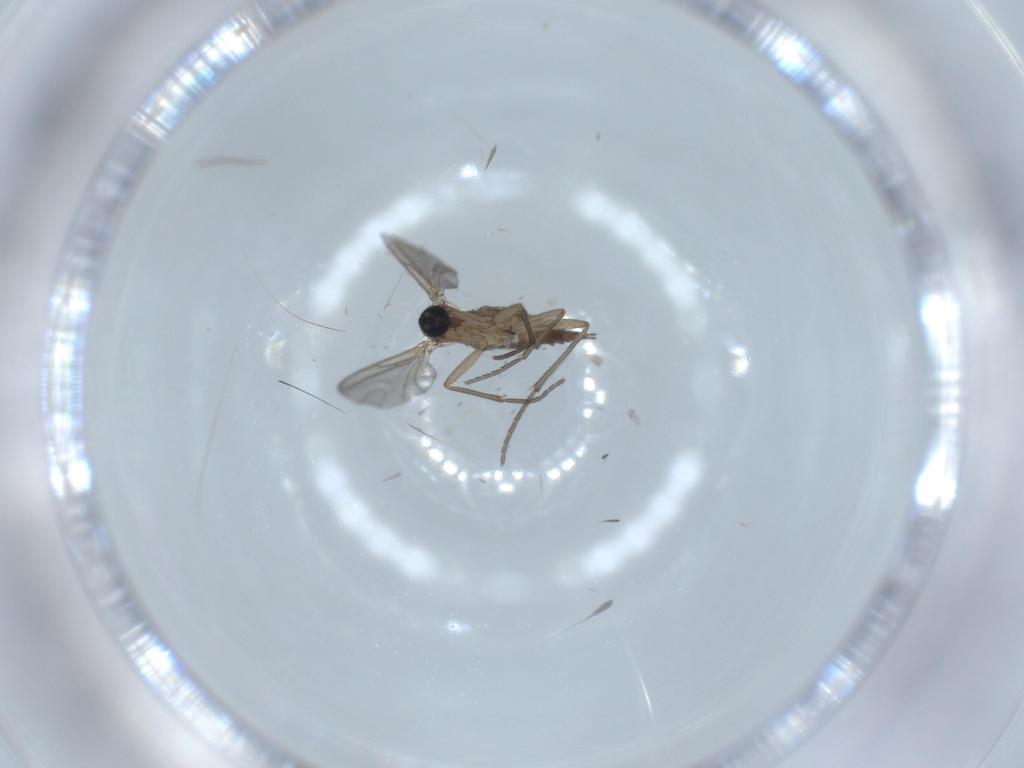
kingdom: Animalia
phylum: Arthropoda
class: Insecta
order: Diptera
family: Sciaridae
